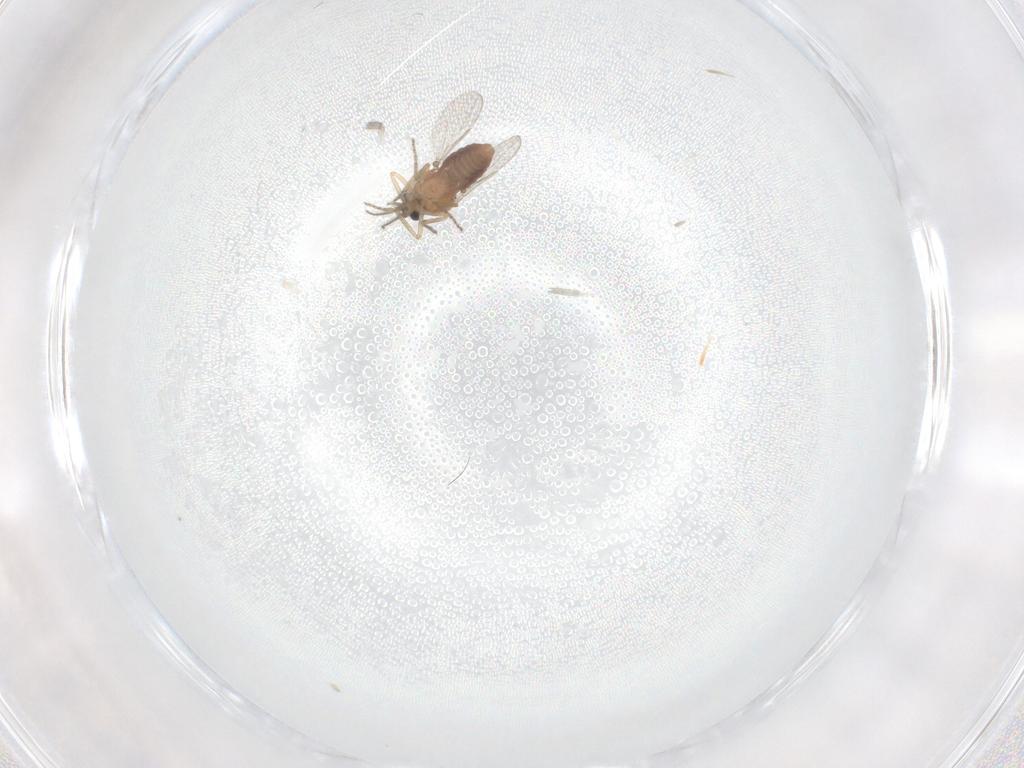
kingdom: Animalia
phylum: Arthropoda
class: Insecta
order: Diptera
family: Ceratopogonidae
